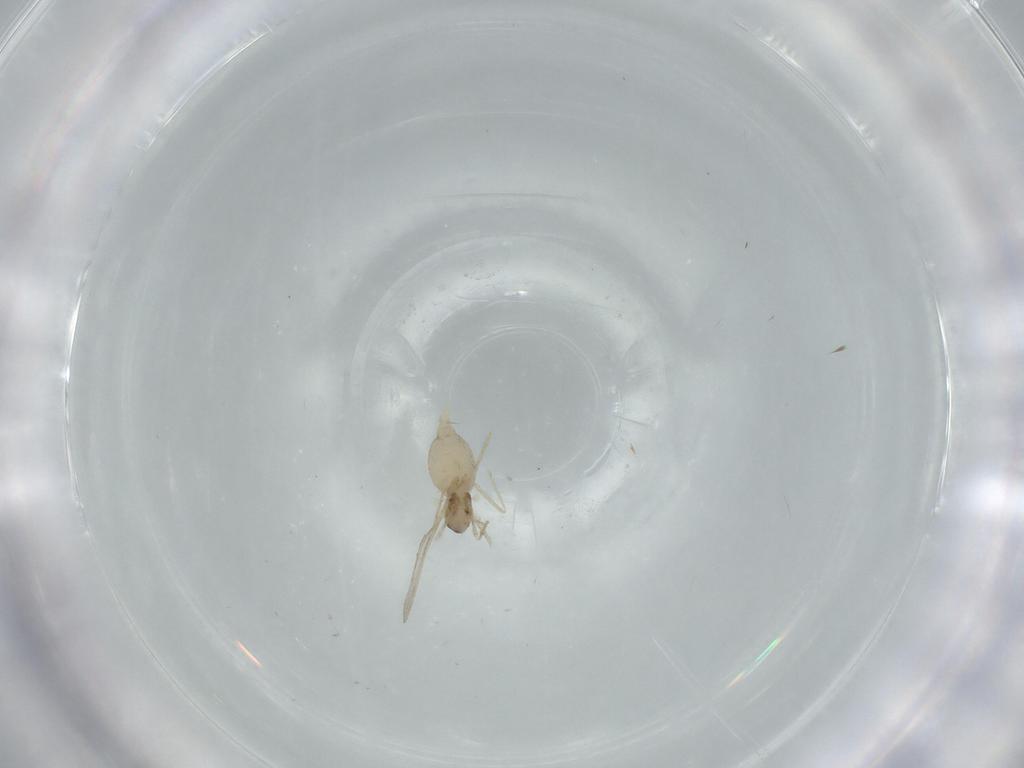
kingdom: Animalia
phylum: Arthropoda
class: Insecta
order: Diptera
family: Cecidomyiidae
